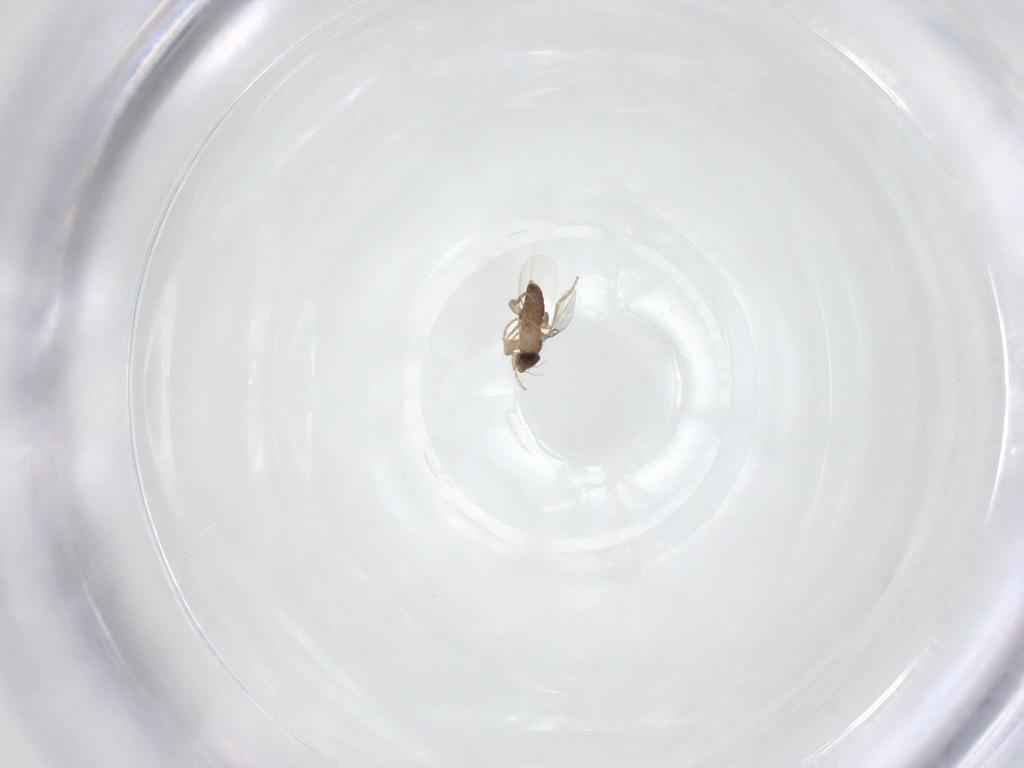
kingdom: Animalia
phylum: Arthropoda
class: Insecta
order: Diptera
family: Phoridae
